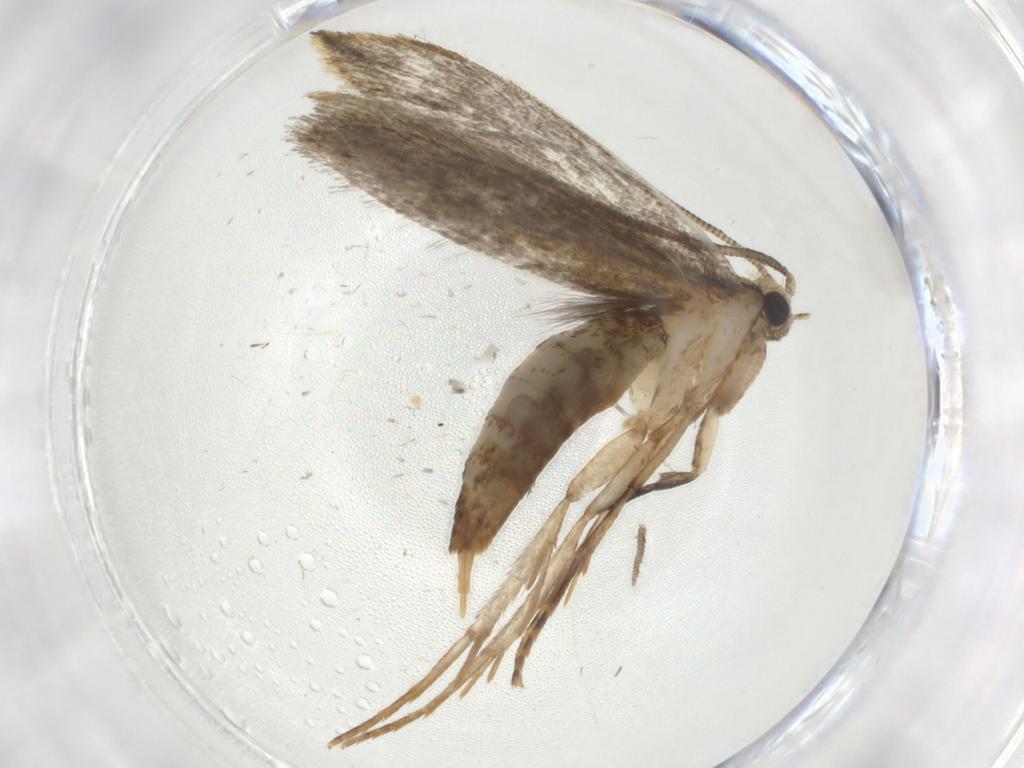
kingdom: Animalia
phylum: Arthropoda
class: Insecta
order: Lepidoptera
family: Tineidae
